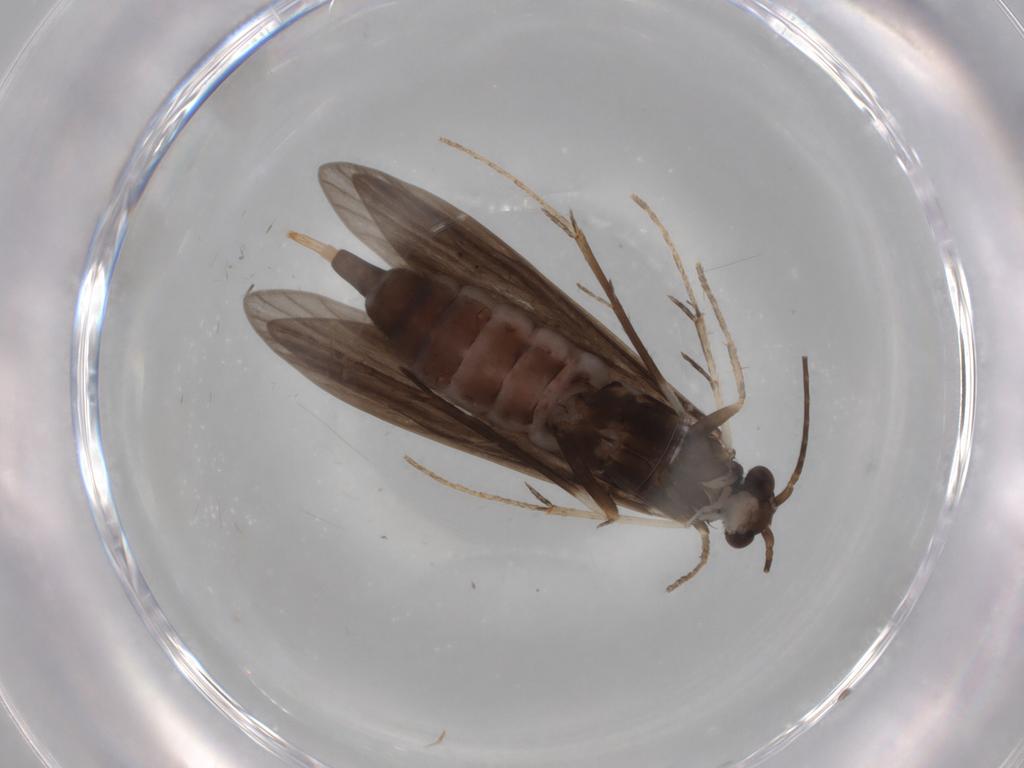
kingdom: Animalia
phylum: Arthropoda
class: Insecta
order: Trichoptera
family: Xiphocentronidae
